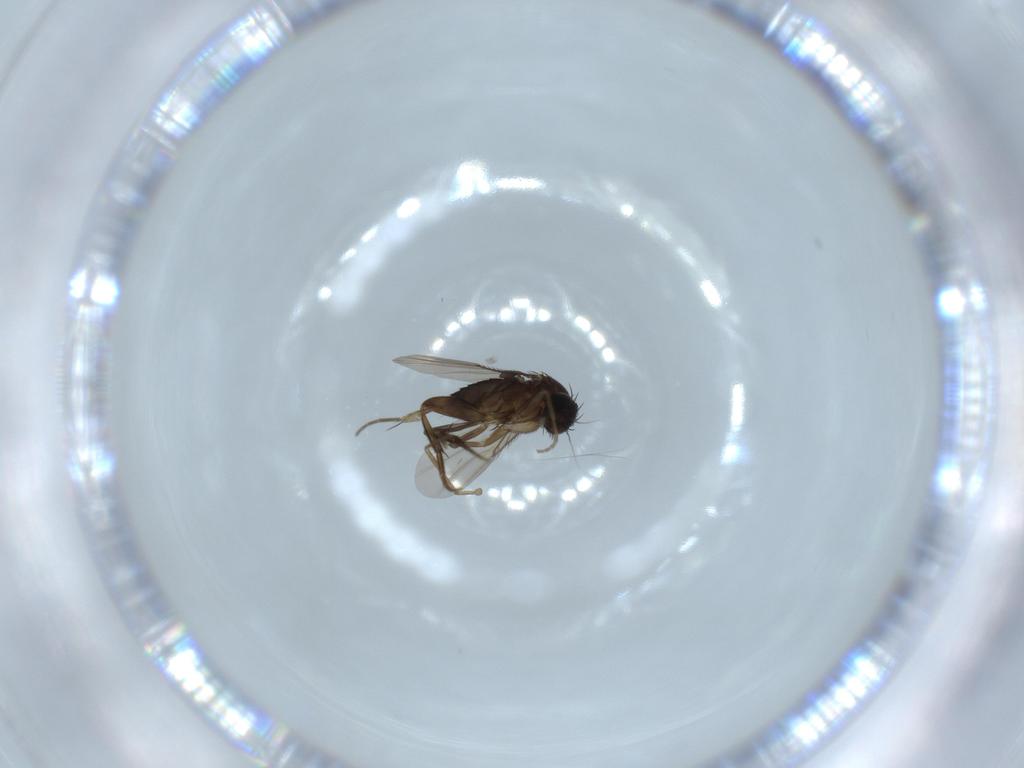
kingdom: Animalia
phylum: Arthropoda
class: Insecta
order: Diptera
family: Phoridae
